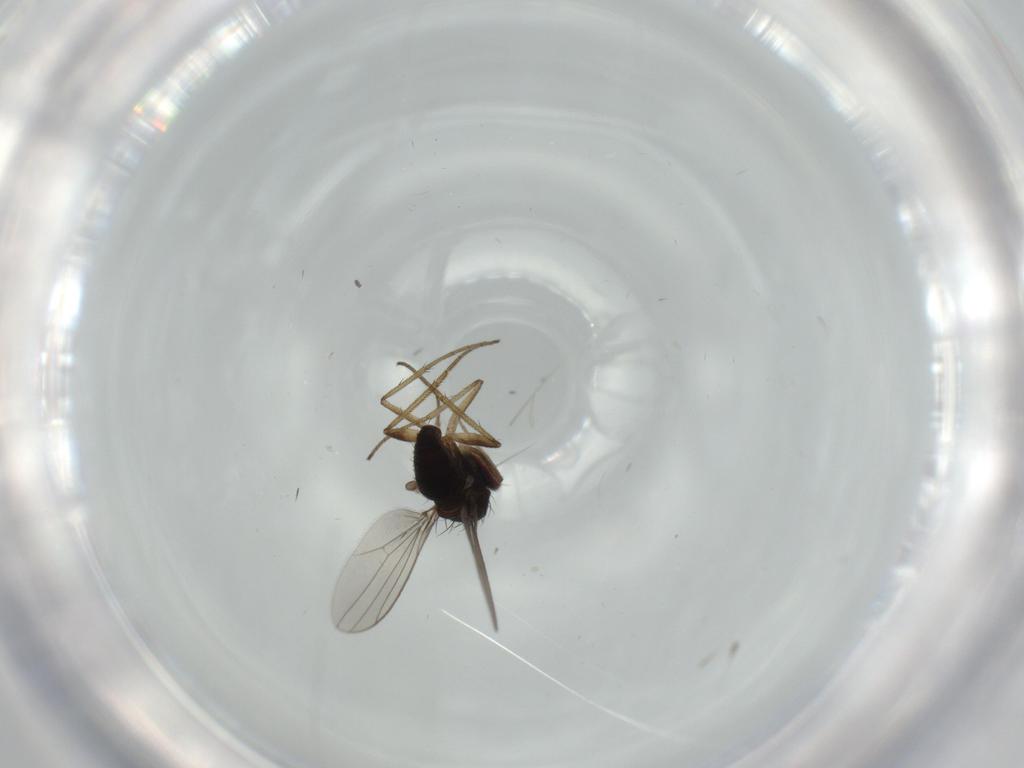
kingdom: Animalia
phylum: Arthropoda
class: Insecta
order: Diptera
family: Dolichopodidae
